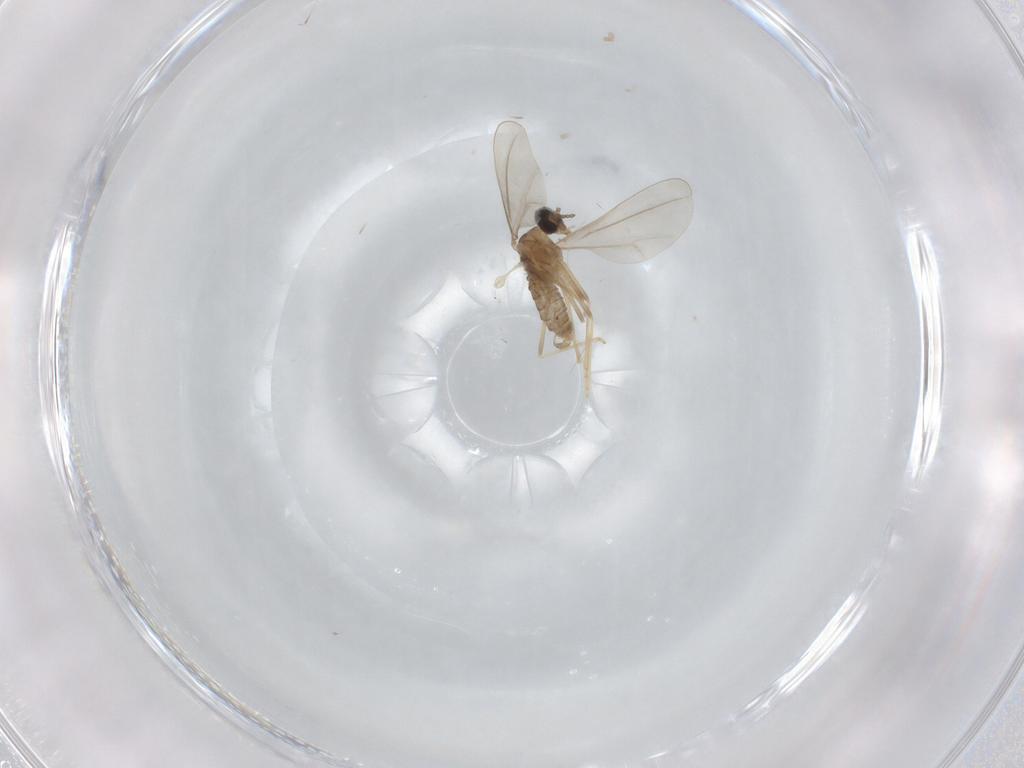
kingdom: Animalia
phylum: Arthropoda
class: Insecta
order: Diptera
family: Cecidomyiidae
